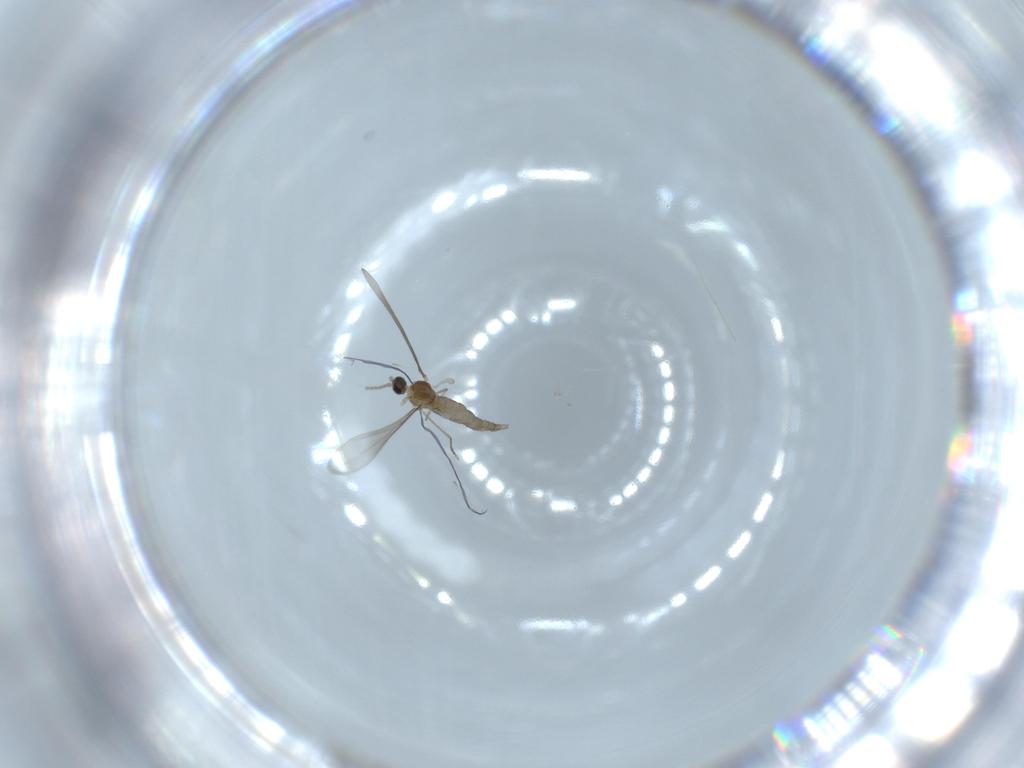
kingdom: Animalia
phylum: Arthropoda
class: Insecta
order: Diptera
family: Cecidomyiidae
